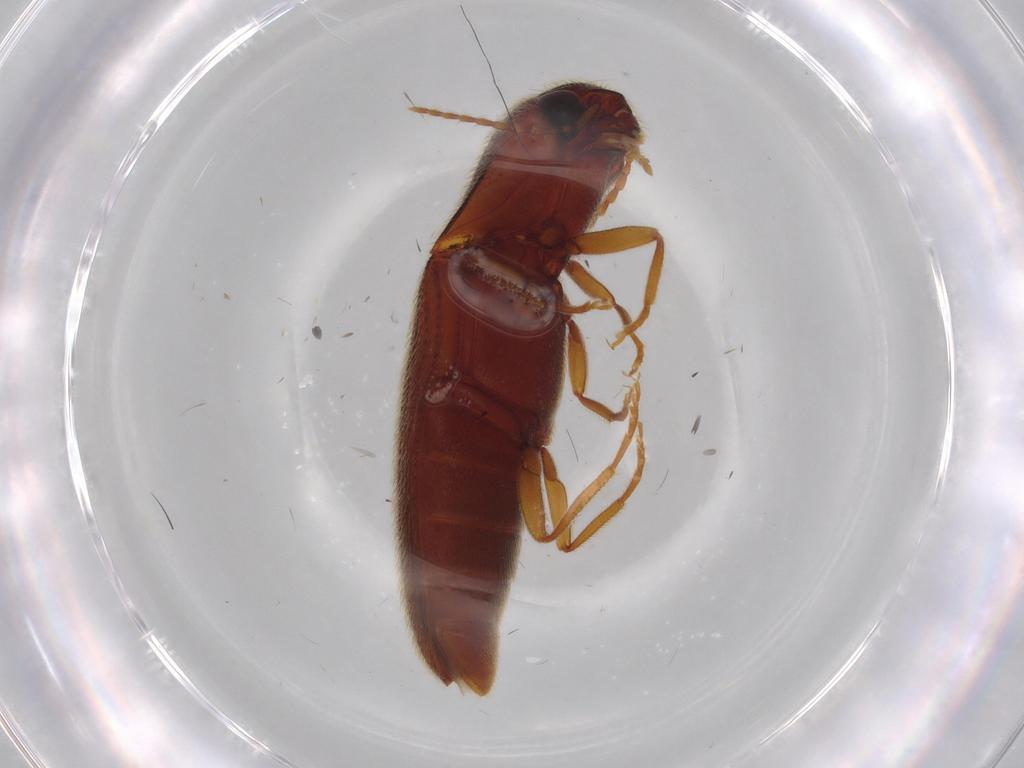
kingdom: Animalia
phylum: Arthropoda
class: Insecta
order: Coleoptera
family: Elateridae
